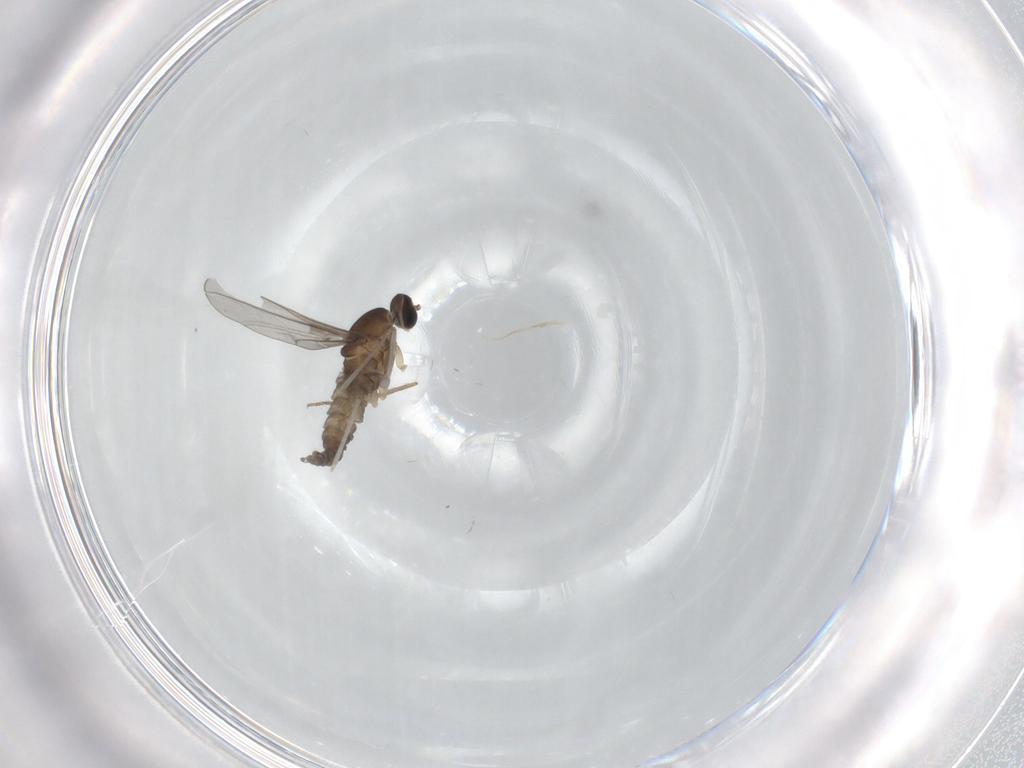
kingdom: Animalia
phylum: Arthropoda
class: Insecta
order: Diptera
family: Chironomidae
